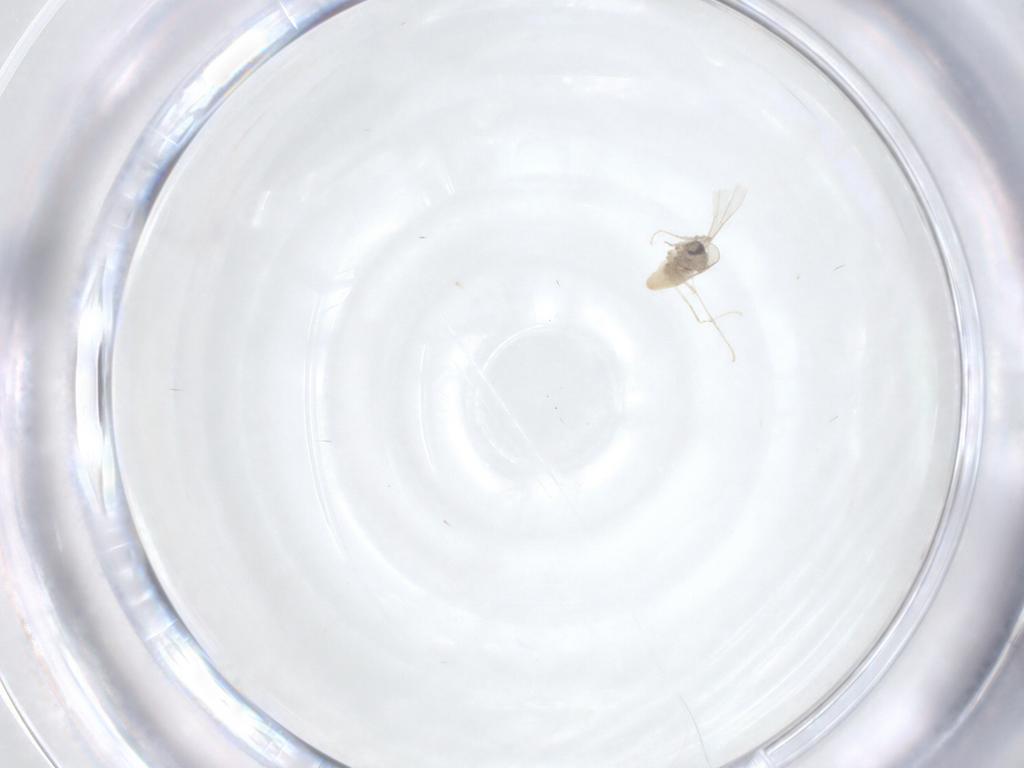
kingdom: Animalia
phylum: Arthropoda
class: Insecta
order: Diptera
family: Cecidomyiidae
